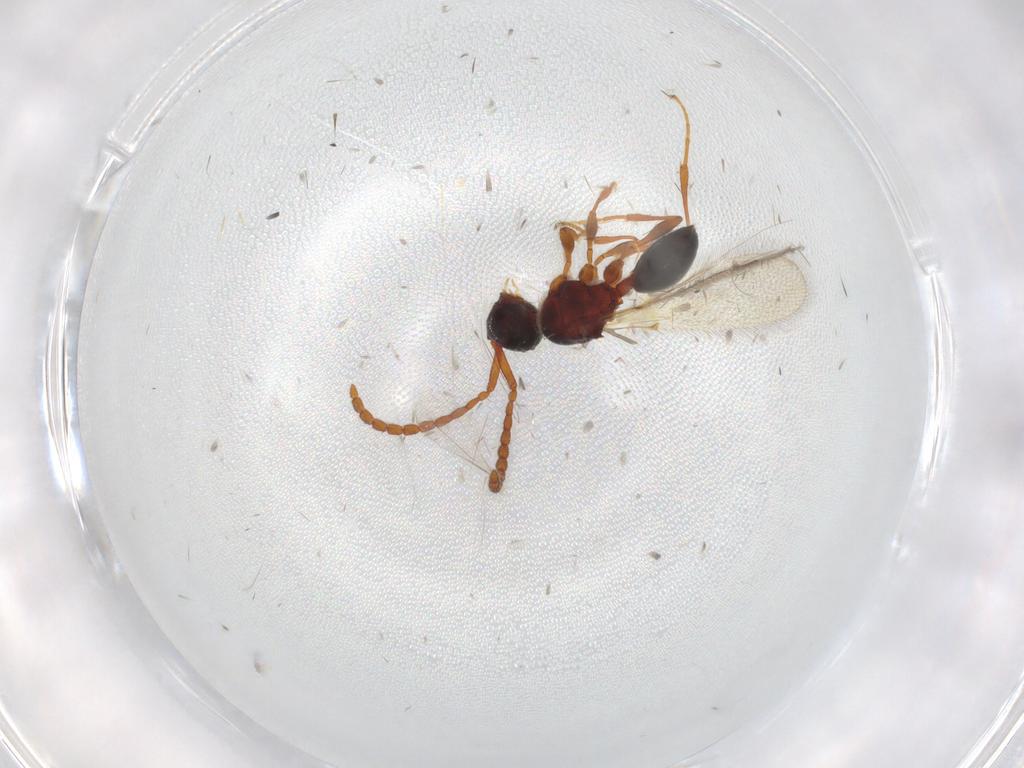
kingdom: Animalia
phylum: Arthropoda
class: Insecta
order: Hymenoptera
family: Diapriidae
